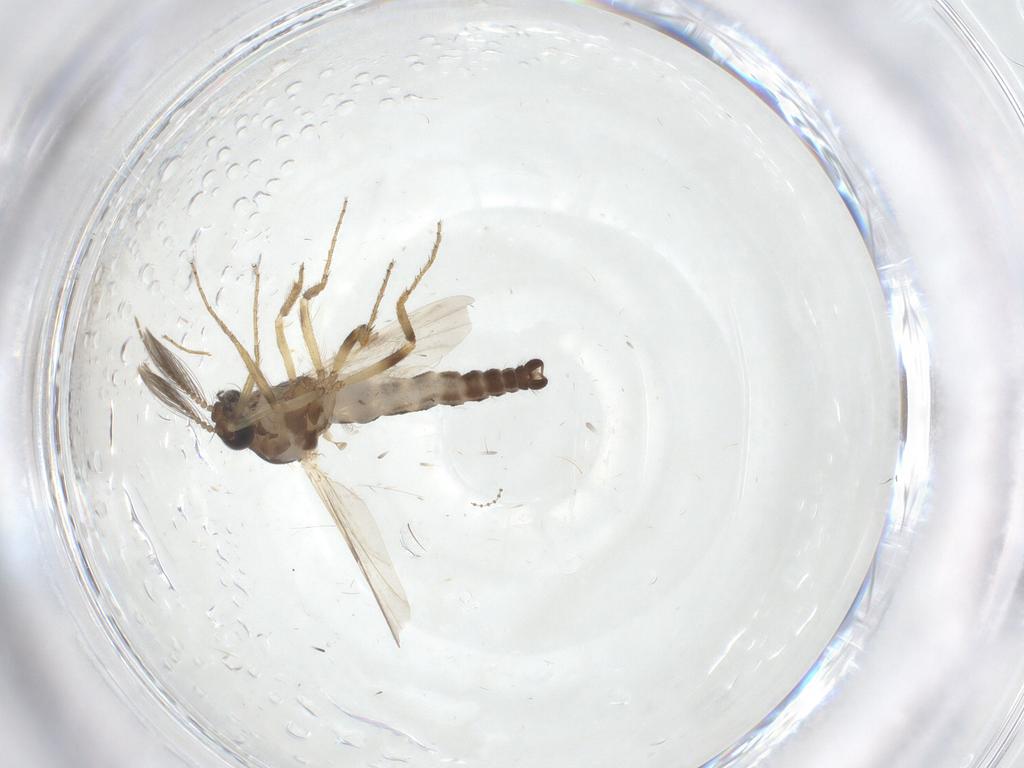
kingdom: Animalia
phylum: Arthropoda
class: Insecta
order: Diptera
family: Ceratopogonidae
